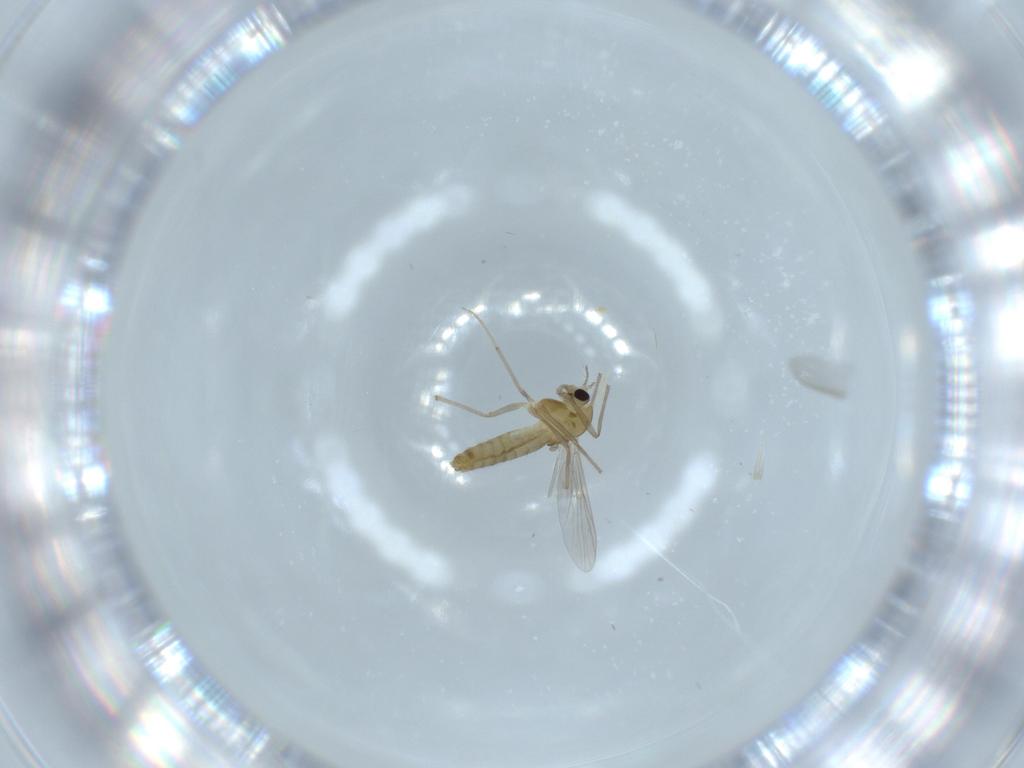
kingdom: Animalia
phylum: Arthropoda
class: Insecta
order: Diptera
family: Chironomidae
